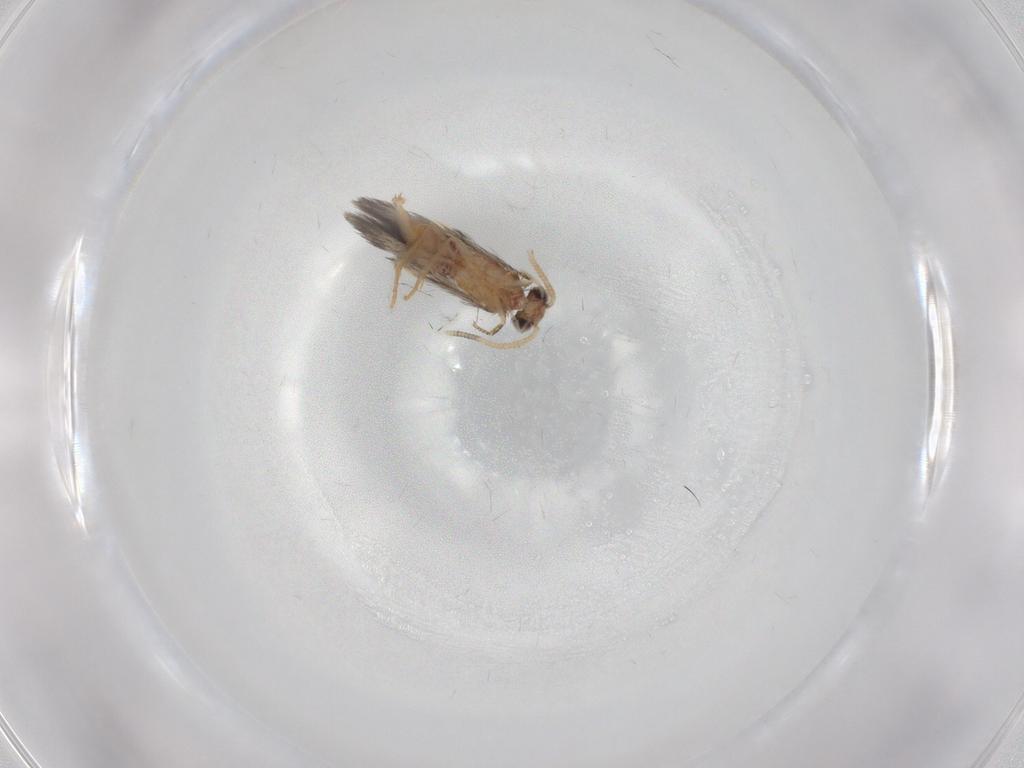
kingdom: Animalia
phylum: Arthropoda
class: Insecta
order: Trichoptera
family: Hydroptilidae
